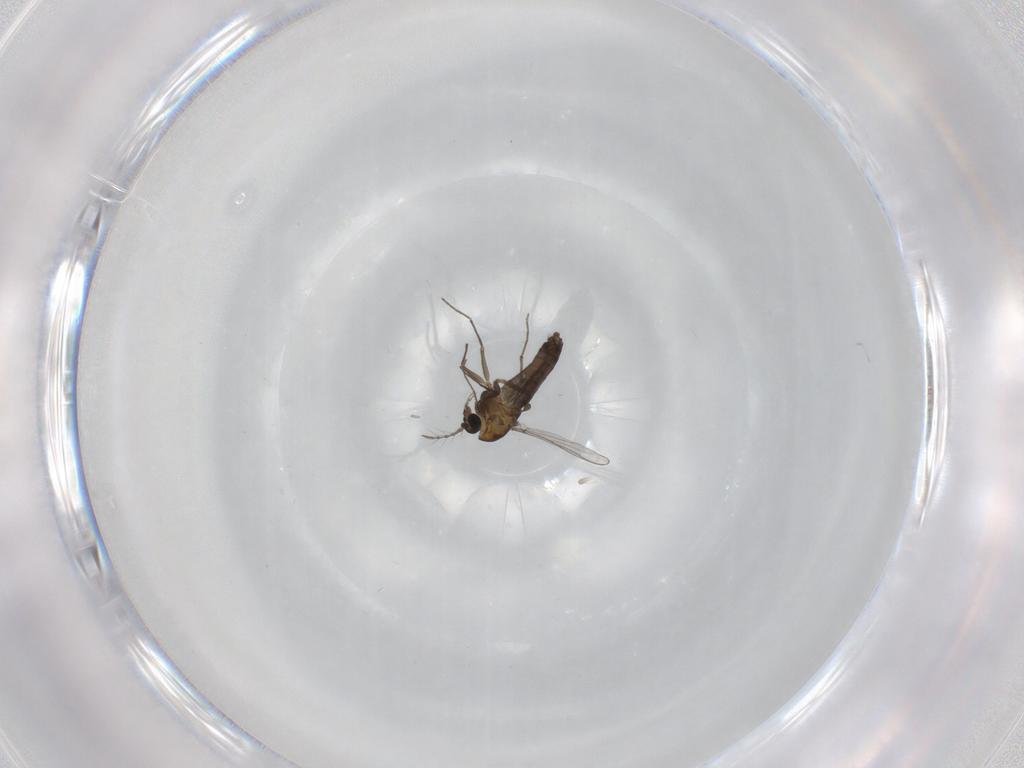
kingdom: Animalia
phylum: Arthropoda
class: Insecta
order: Diptera
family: Chironomidae
